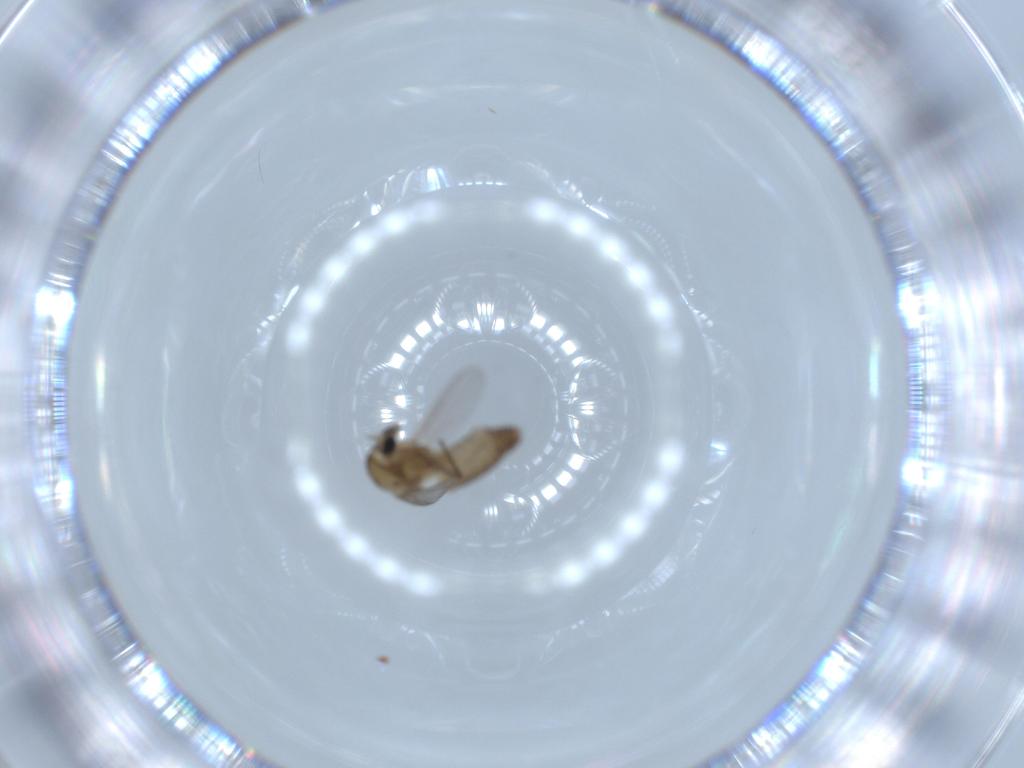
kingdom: Animalia
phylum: Arthropoda
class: Insecta
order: Diptera
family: Chironomidae
